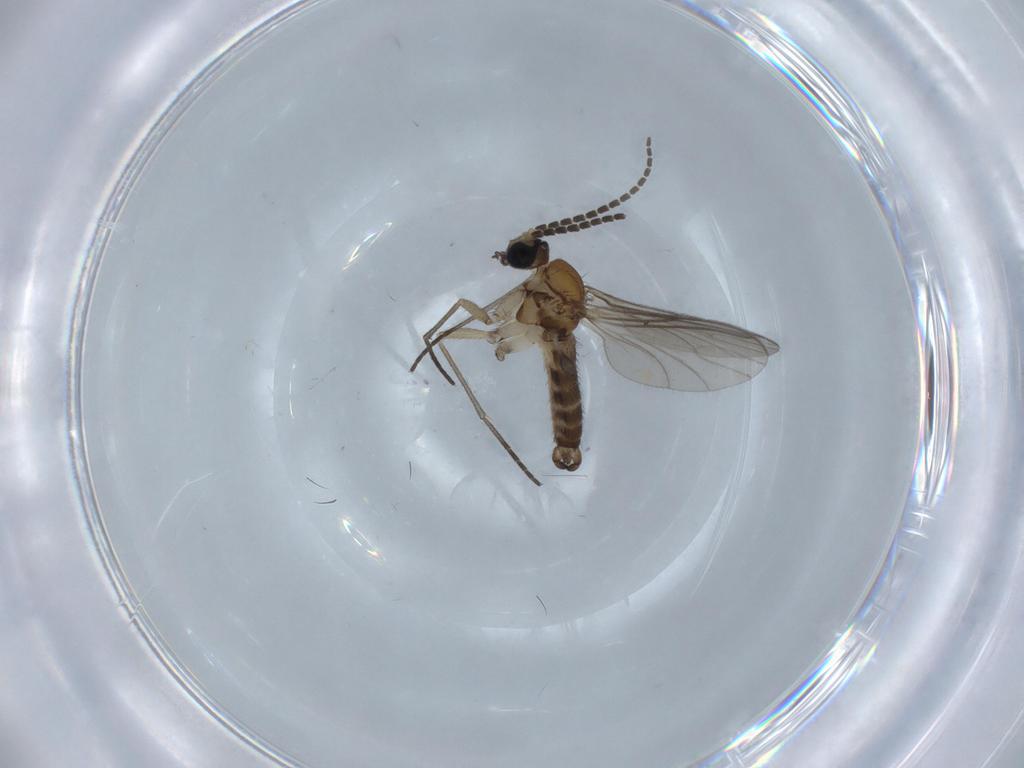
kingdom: Animalia
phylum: Arthropoda
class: Insecta
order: Diptera
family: Sciaridae
